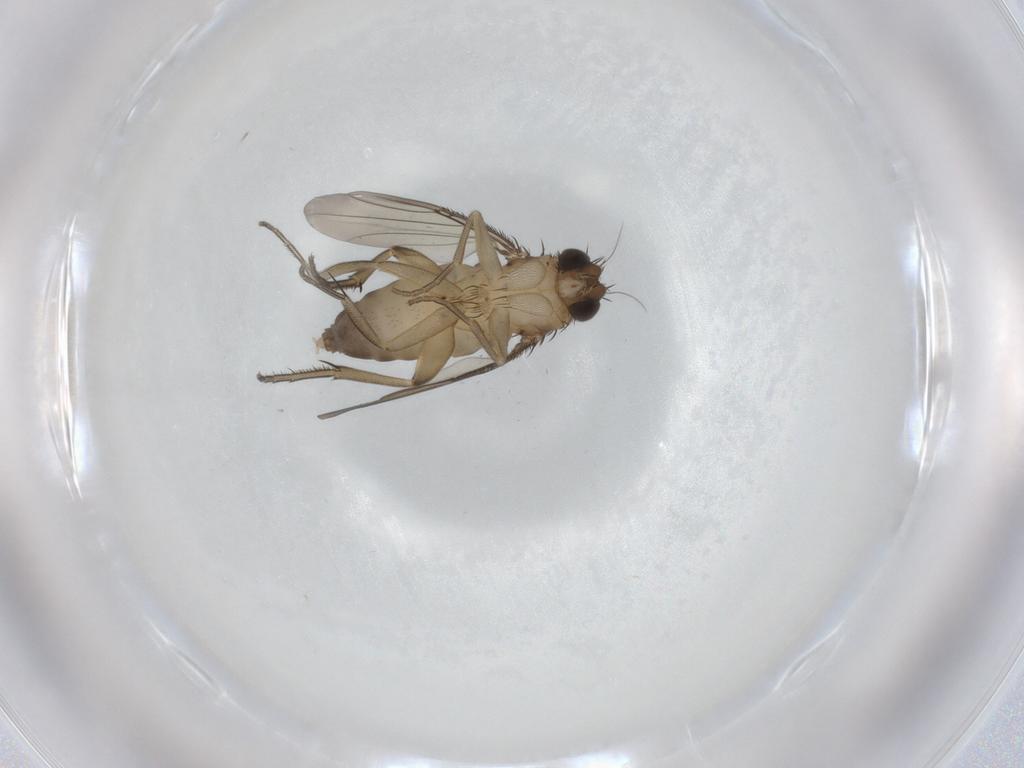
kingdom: Animalia
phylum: Arthropoda
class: Insecta
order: Diptera
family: Phoridae
